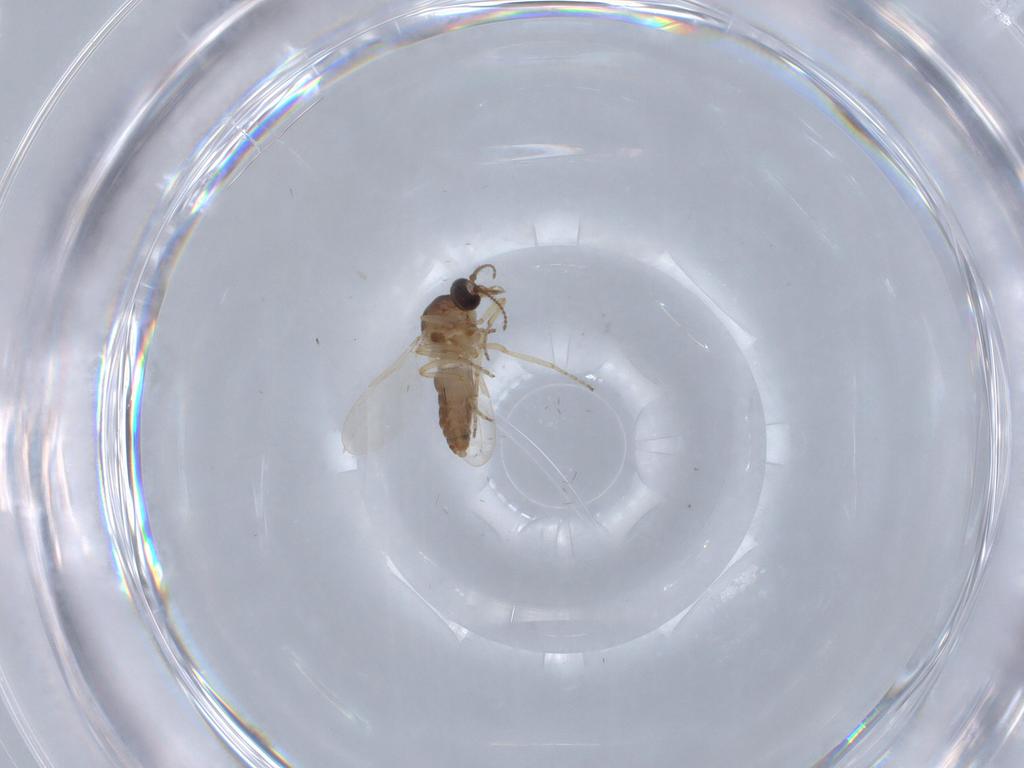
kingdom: Animalia
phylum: Arthropoda
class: Insecta
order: Diptera
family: Ceratopogonidae
